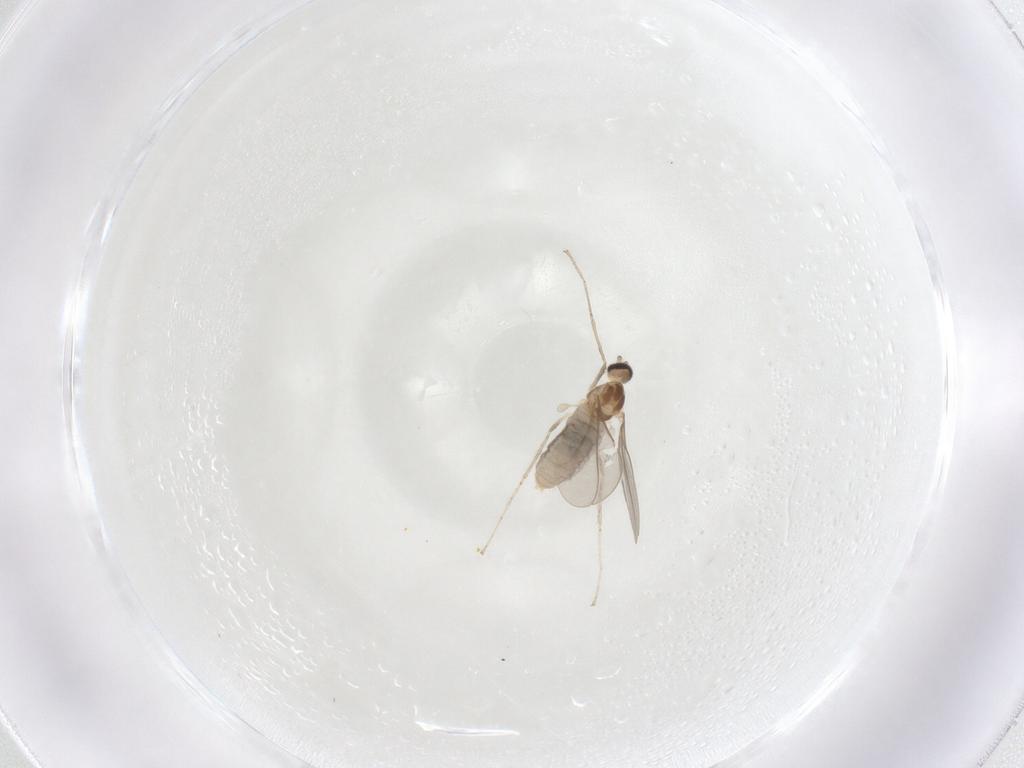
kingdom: Animalia
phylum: Arthropoda
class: Insecta
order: Diptera
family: Cecidomyiidae
